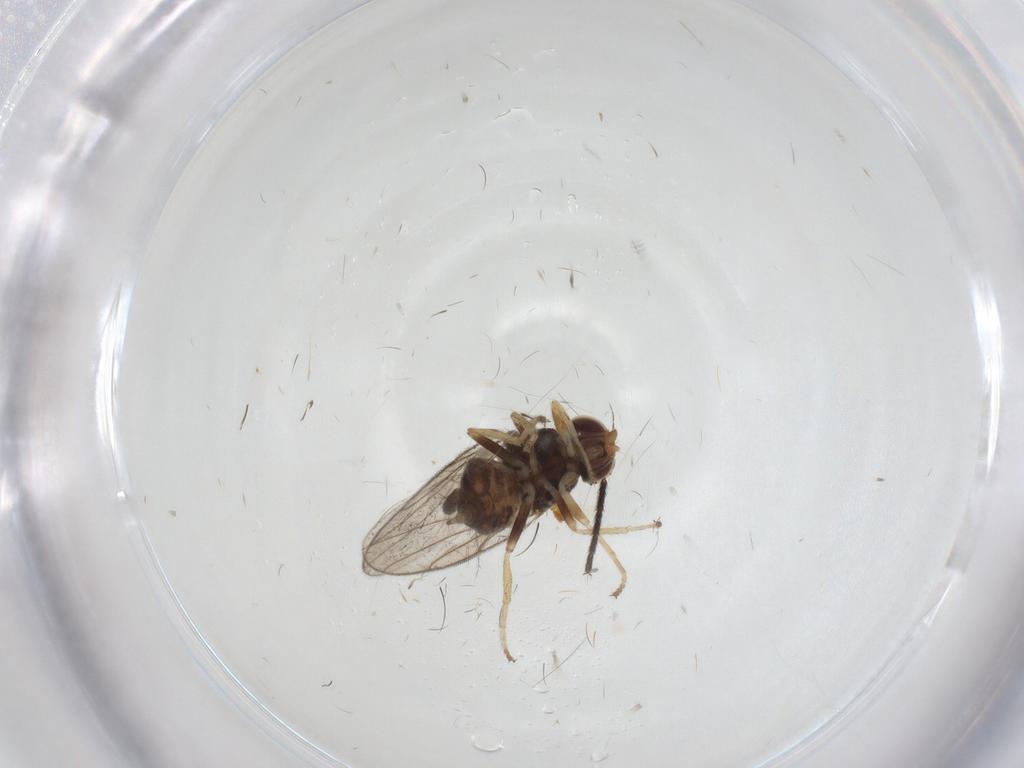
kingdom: Animalia
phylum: Arthropoda
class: Insecta
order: Diptera
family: Chloropidae
